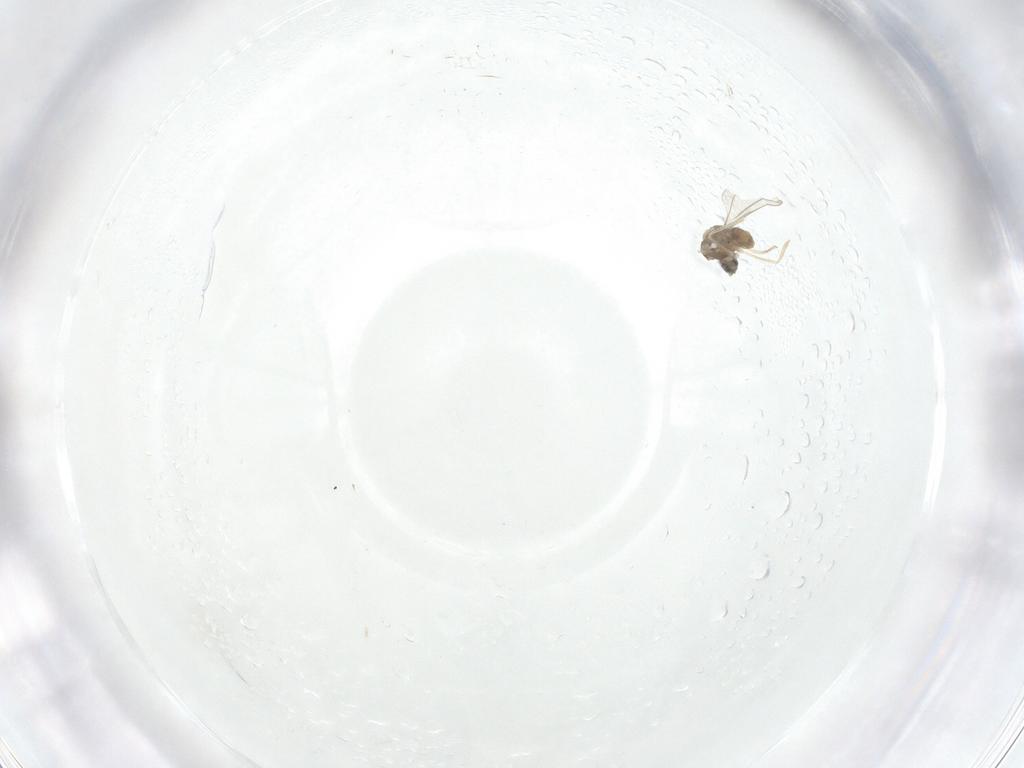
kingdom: Animalia
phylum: Arthropoda
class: Insecta
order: Diptera
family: Cecidomyiidae
